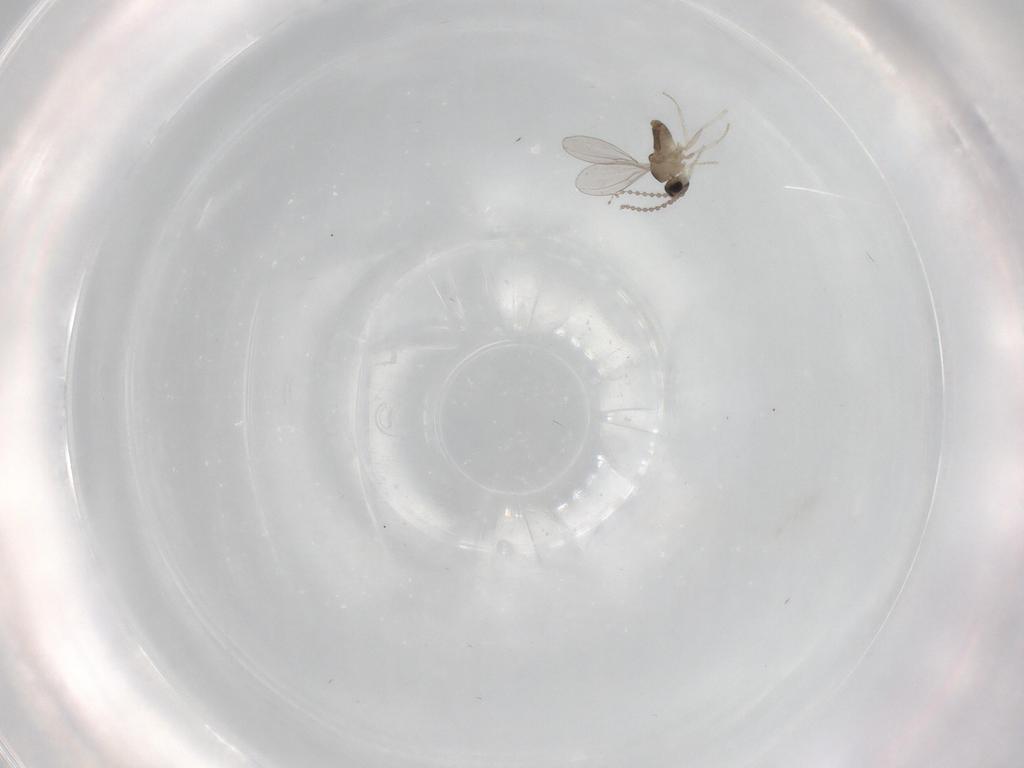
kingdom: Animalia
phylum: Arthropoda
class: Insecta
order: Diptera
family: Cecidomyiidae
